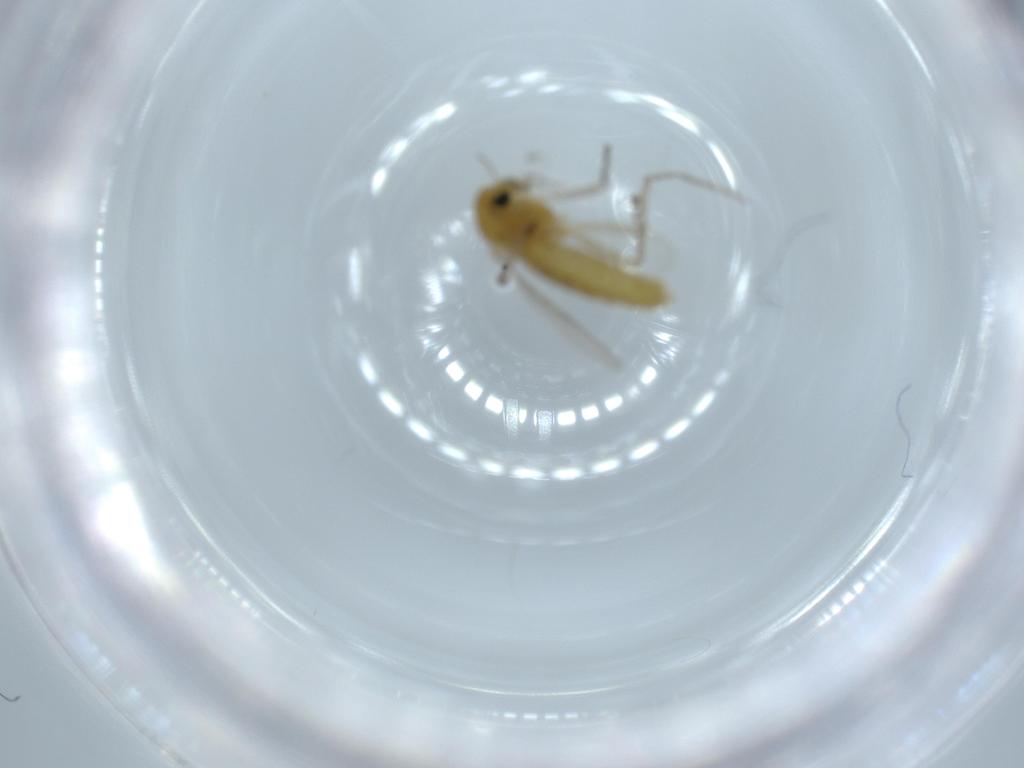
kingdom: Animalia
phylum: Arthropoda
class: Insecta
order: Diptera
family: Chironomidae
